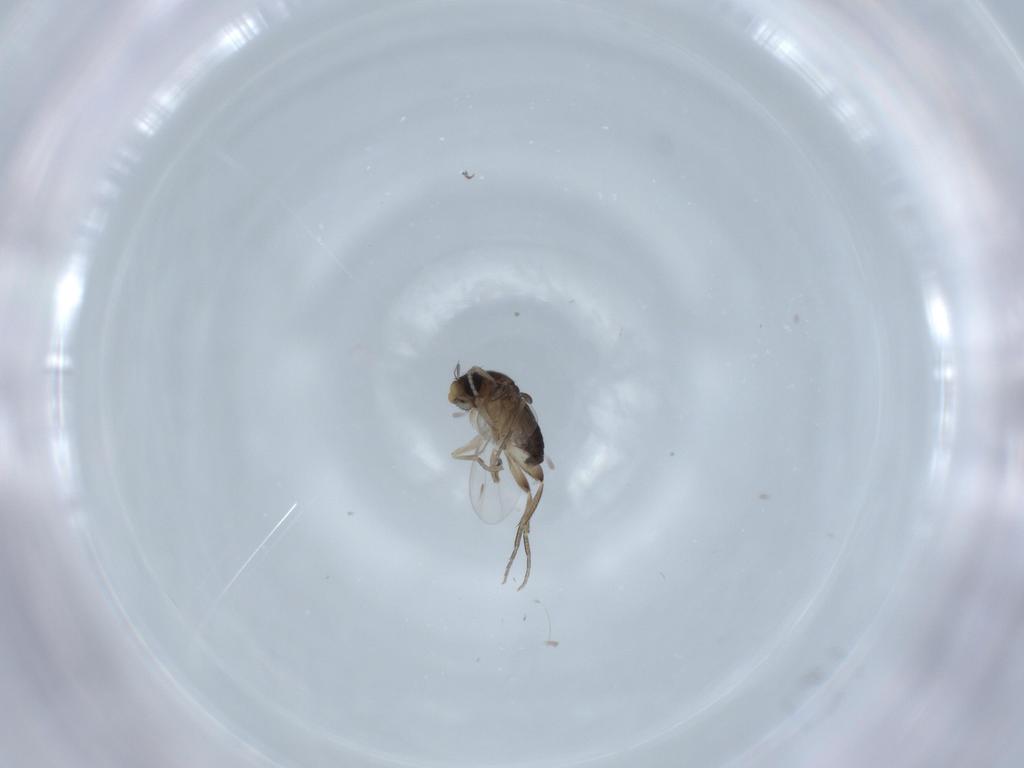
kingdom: Animalia
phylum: Arthropoda
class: Insecta
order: Diptera
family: Phoridae
